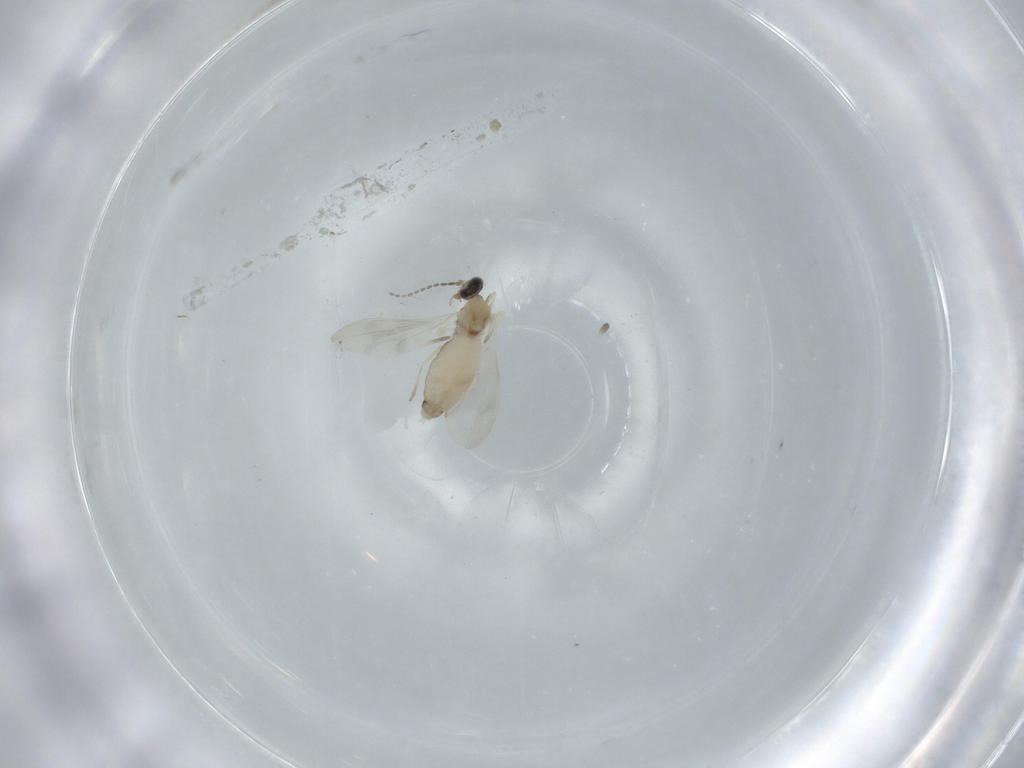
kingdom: Animalia
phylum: Arthropoda
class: Insecta
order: Diptera
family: Cecidomyiidae
